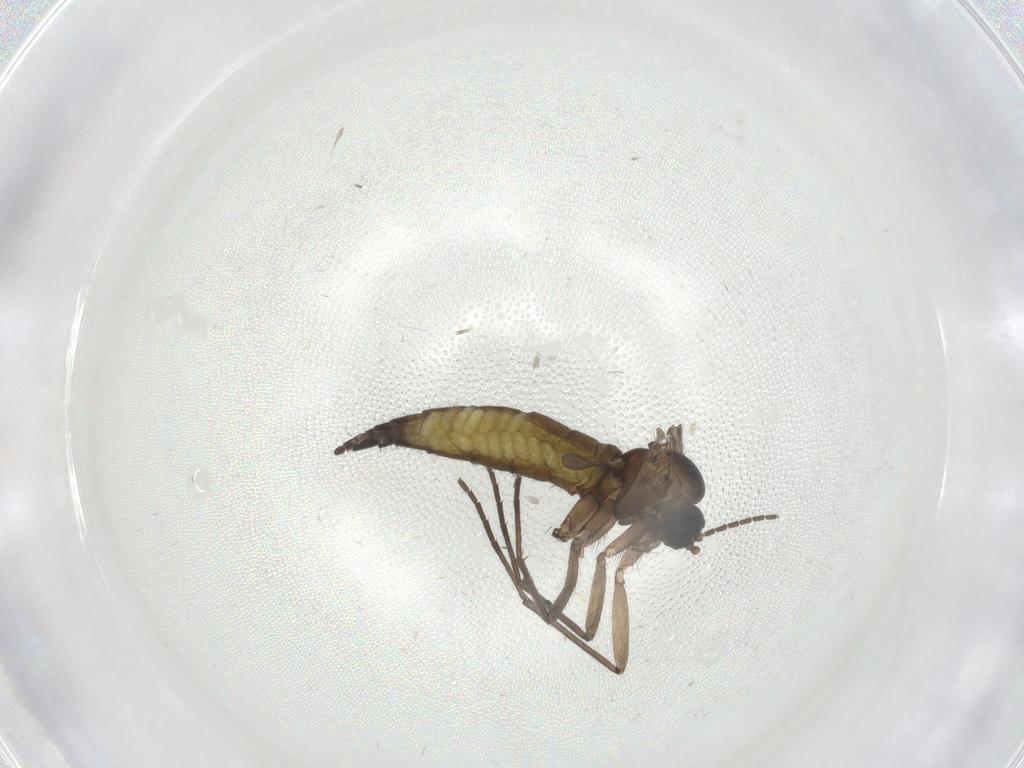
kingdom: Animalia
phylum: Arthropoda
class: Insecta
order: Diptera
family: Sciaridae
